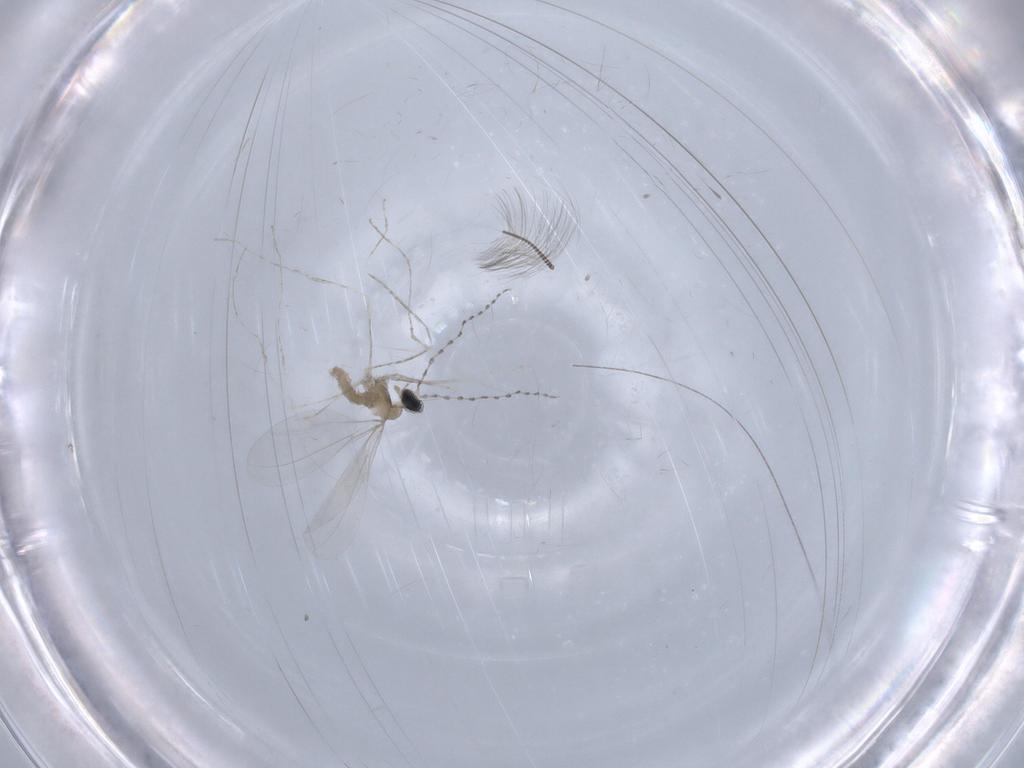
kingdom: Animalia
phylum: Arthropoda
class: Insecta
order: Diptera
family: Cecidomyiidae
